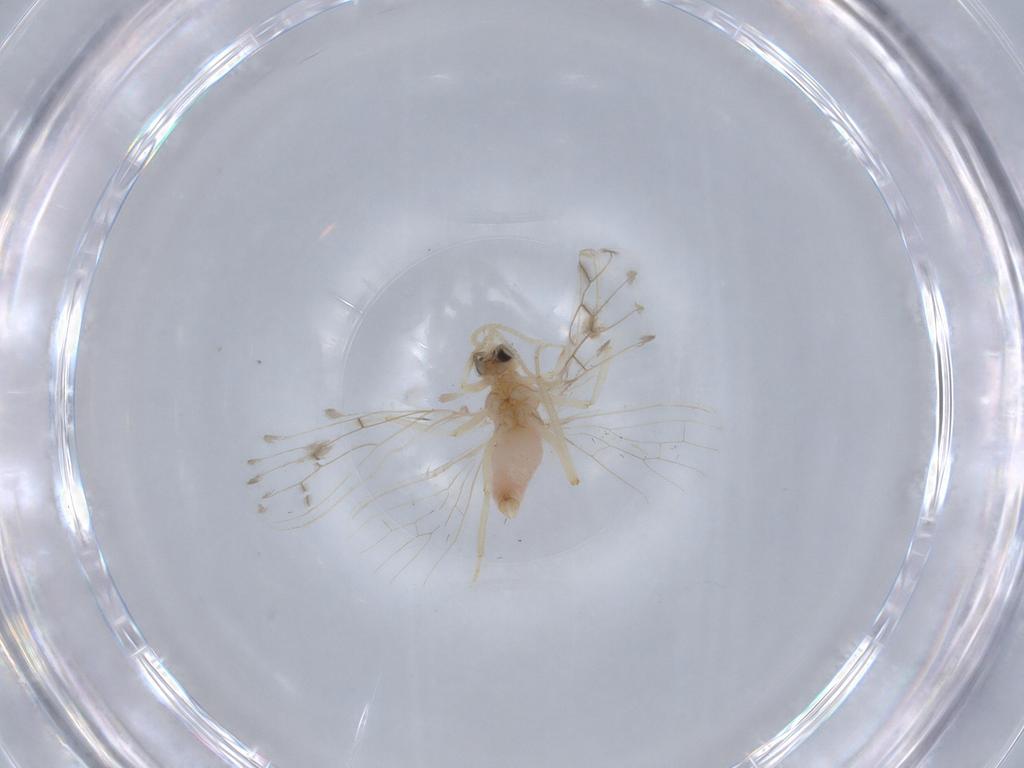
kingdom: Animalia
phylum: Arthropoda
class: Insecta
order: Neuroptera
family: Coniopterygidae
